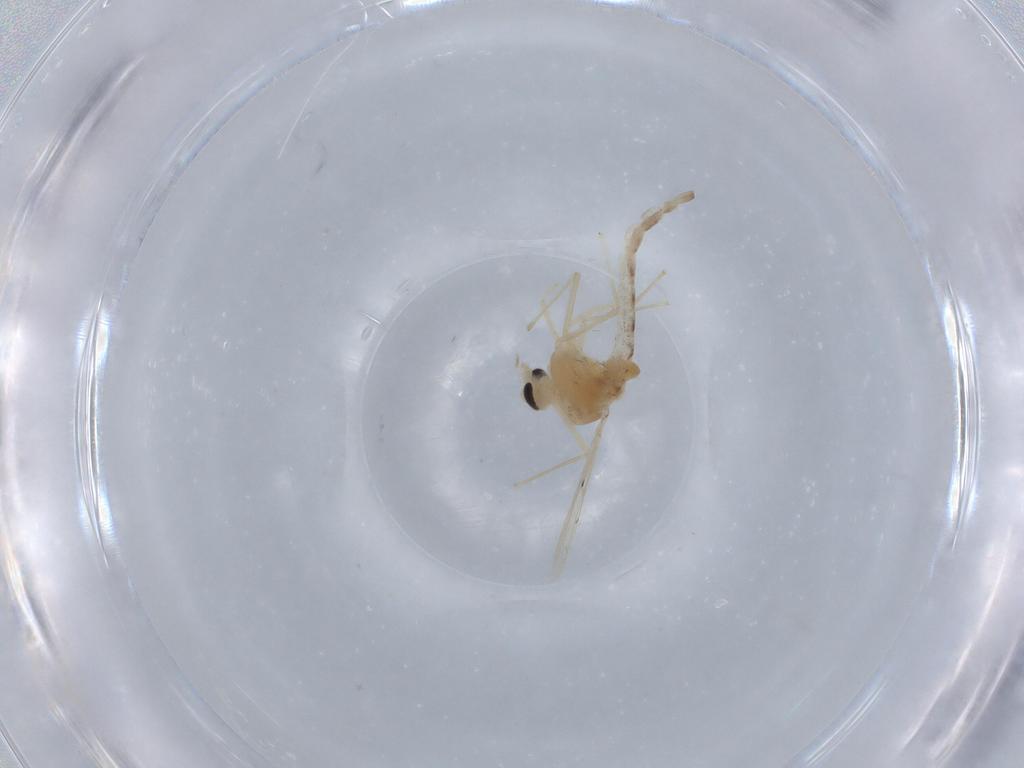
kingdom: Animalia
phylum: Arthropoda
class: Insecta
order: Diptera
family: Chironomidae
